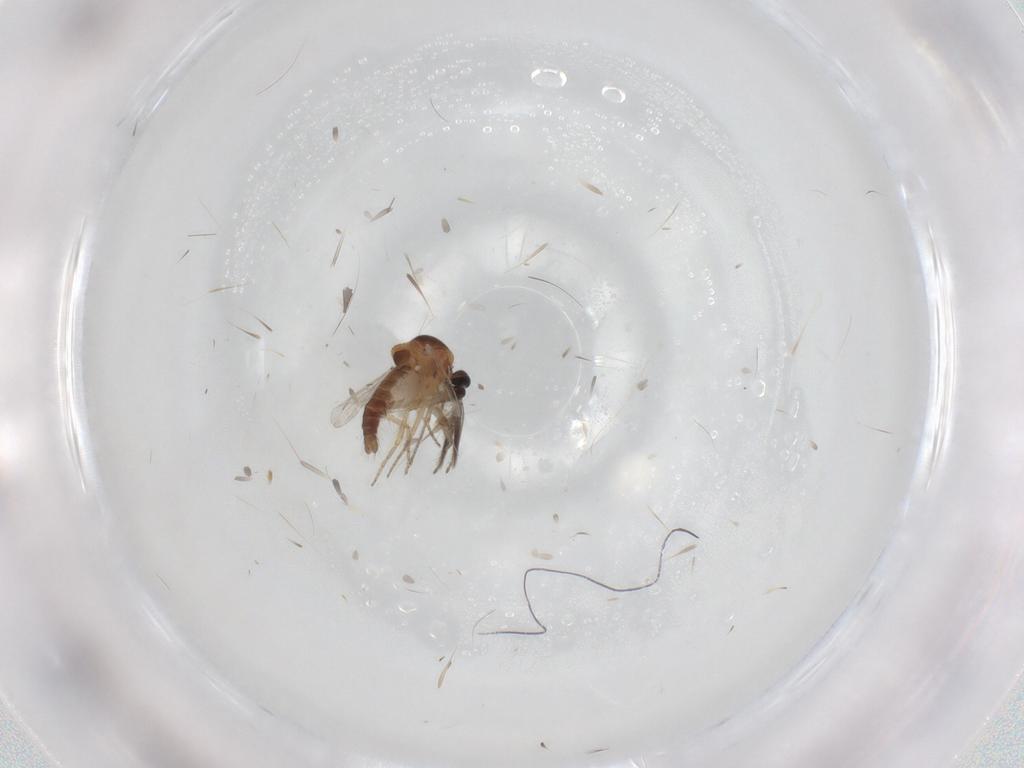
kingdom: Animalia
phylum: Arthropoda
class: Insecta
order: Diptera
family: Ceratopogonidae
